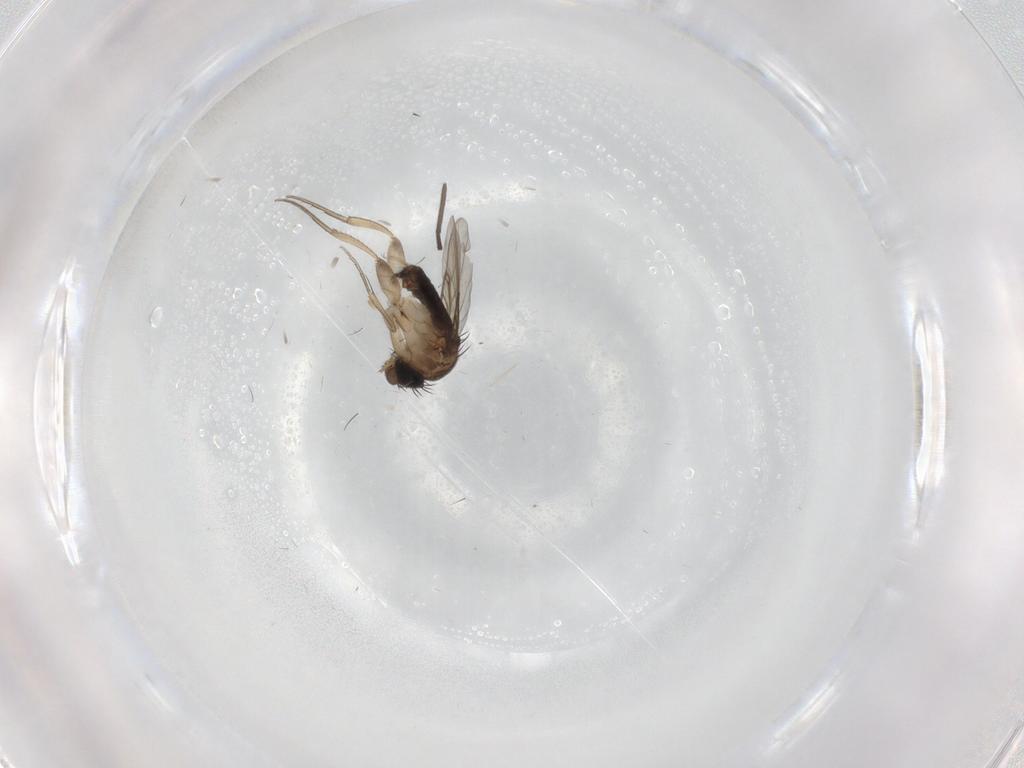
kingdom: Animalia
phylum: Arthropoda
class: Insecta
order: Diptera
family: Phoridae
